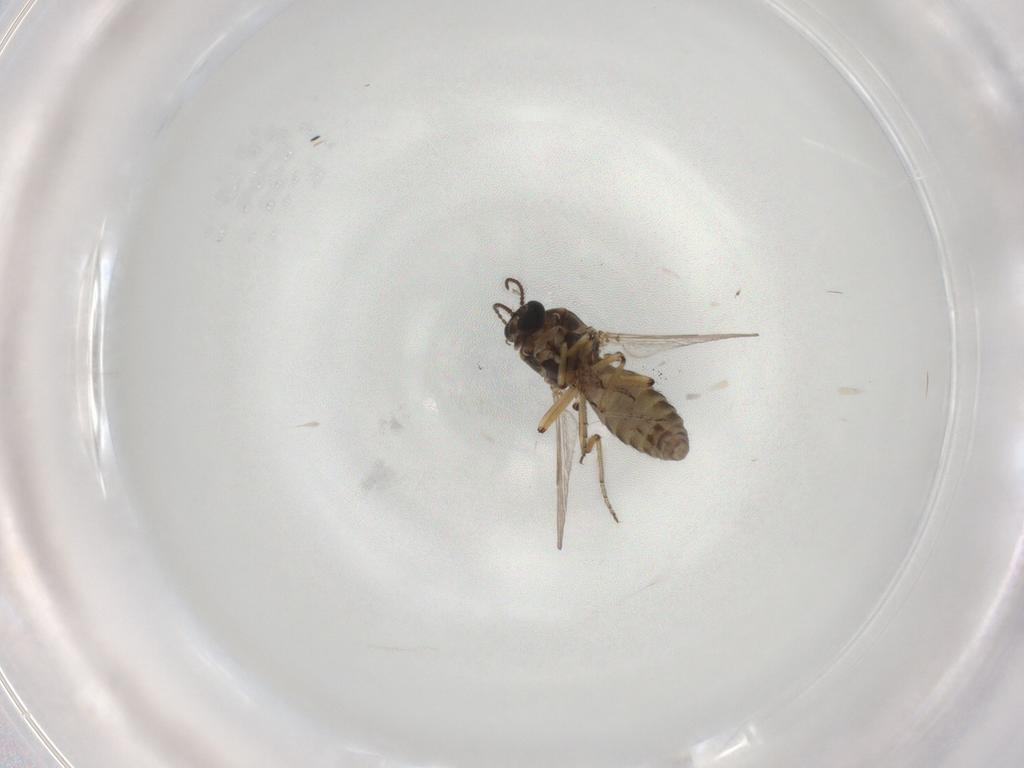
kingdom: Animalia
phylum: Arthropoda
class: Insecta
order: Diptera
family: Ceratopogonidae
